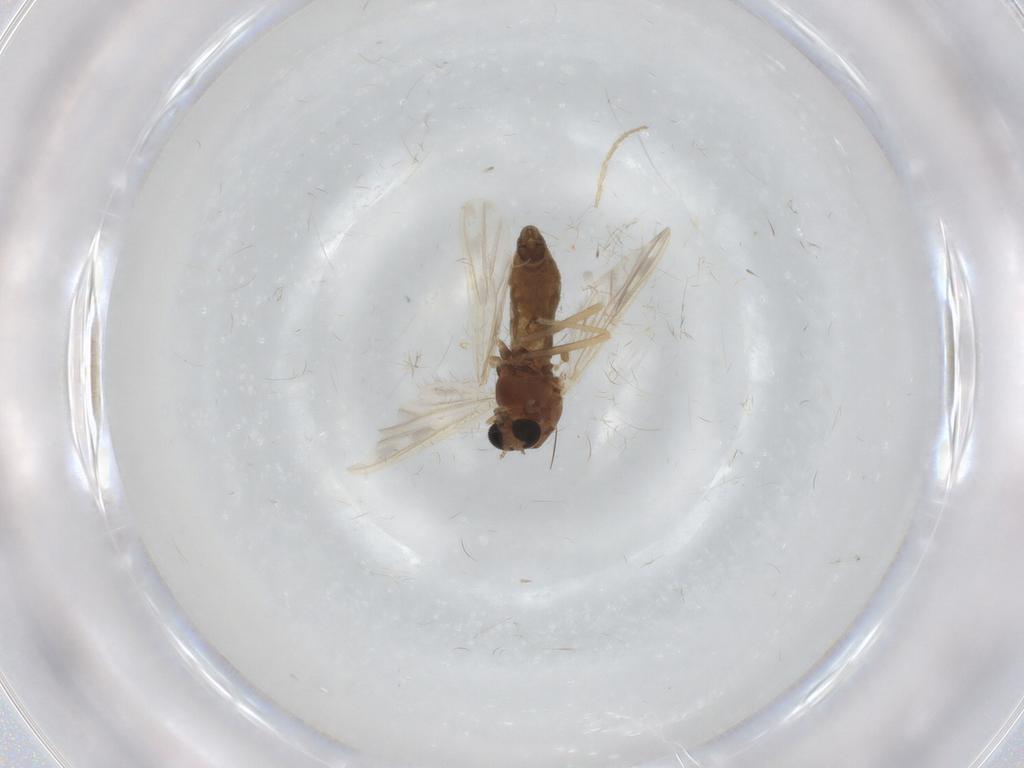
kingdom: Animalia
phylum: Arthropoda
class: Insecta
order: Diptera
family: Chironomidae
